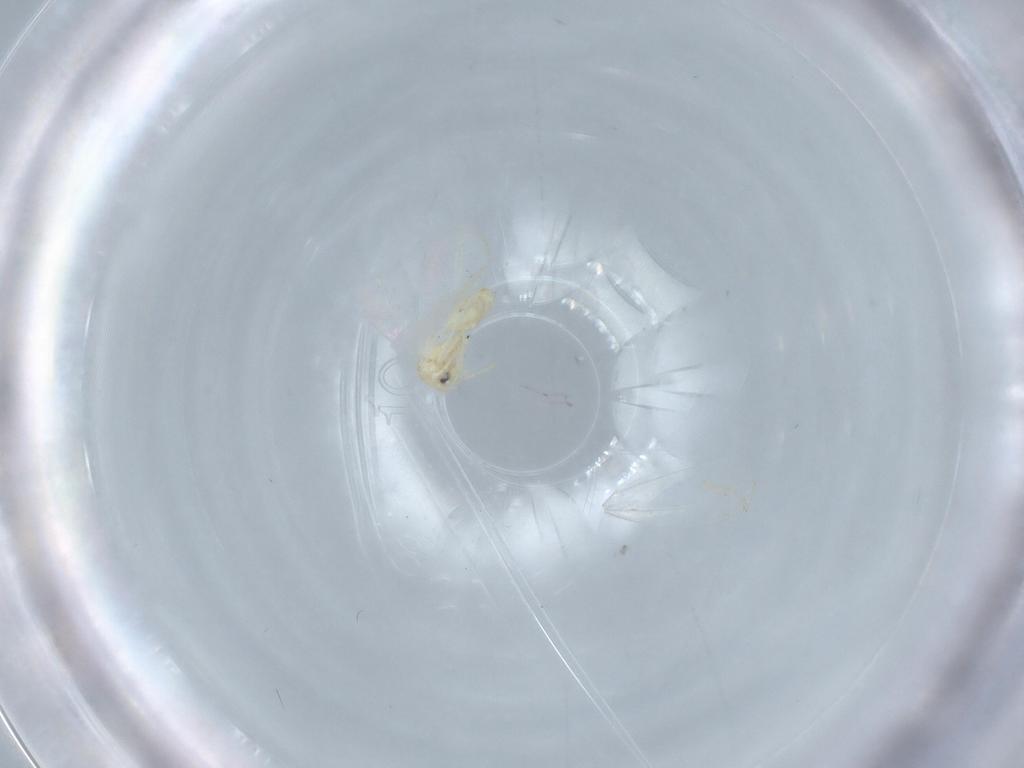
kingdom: Animalia
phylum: Arthropoda
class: Insecta
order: Hemiptera
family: Aleyrodidae
